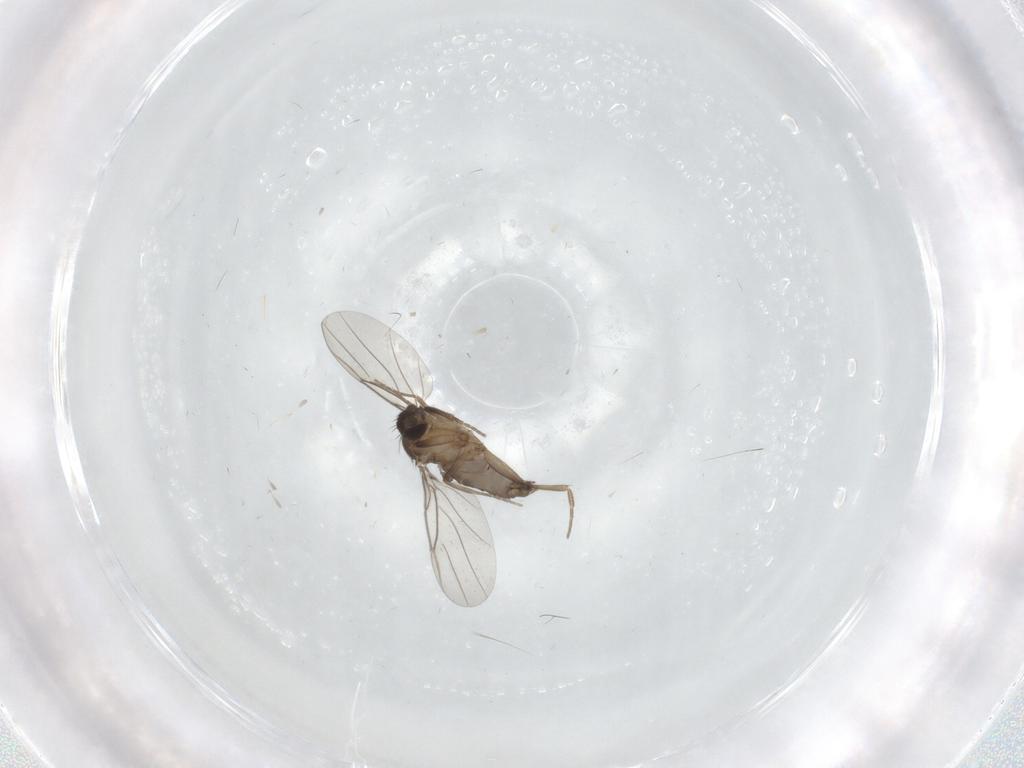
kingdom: Animalia
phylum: Arthropoda
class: Insecta
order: Diptera
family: Phoridae
